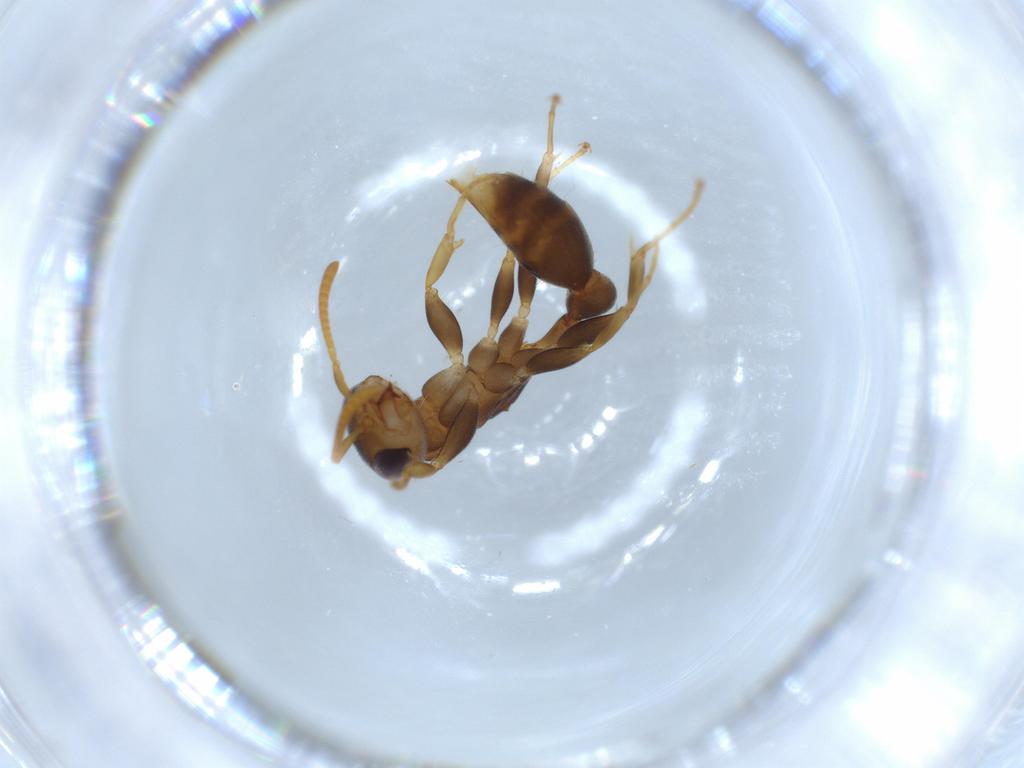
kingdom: Animalia
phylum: Arthropoda
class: Insecta
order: Hymenoptera
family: Formicidae
